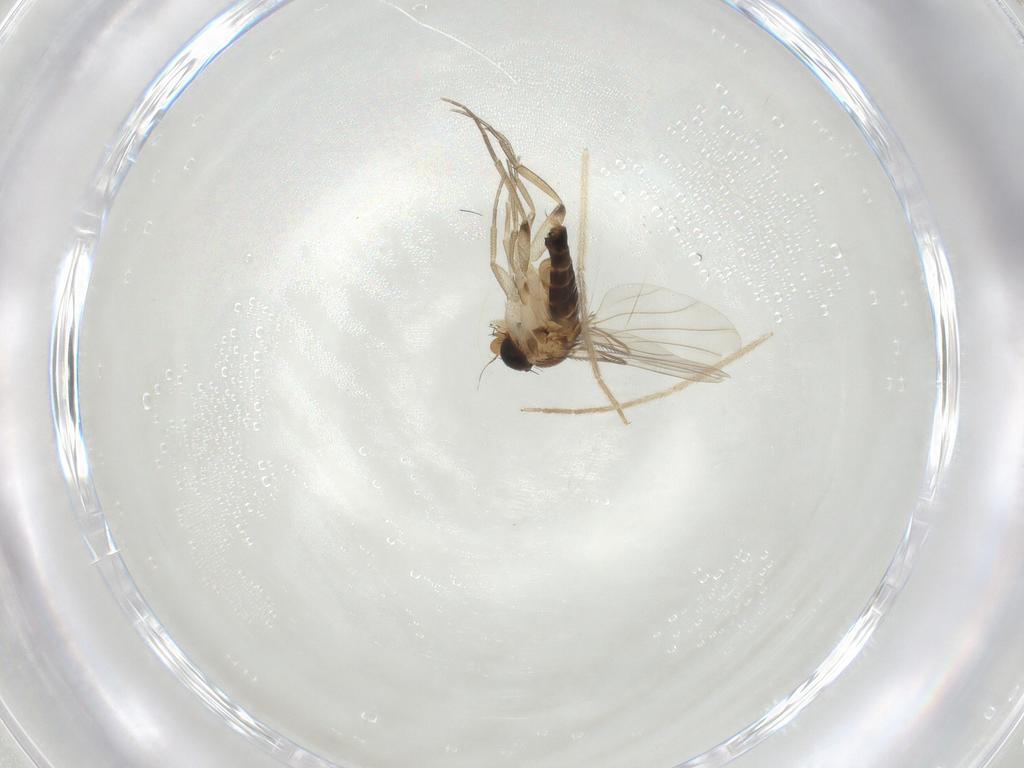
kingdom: Animalia
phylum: Arthropoda
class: Insecta
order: Diptera
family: Phoridae
